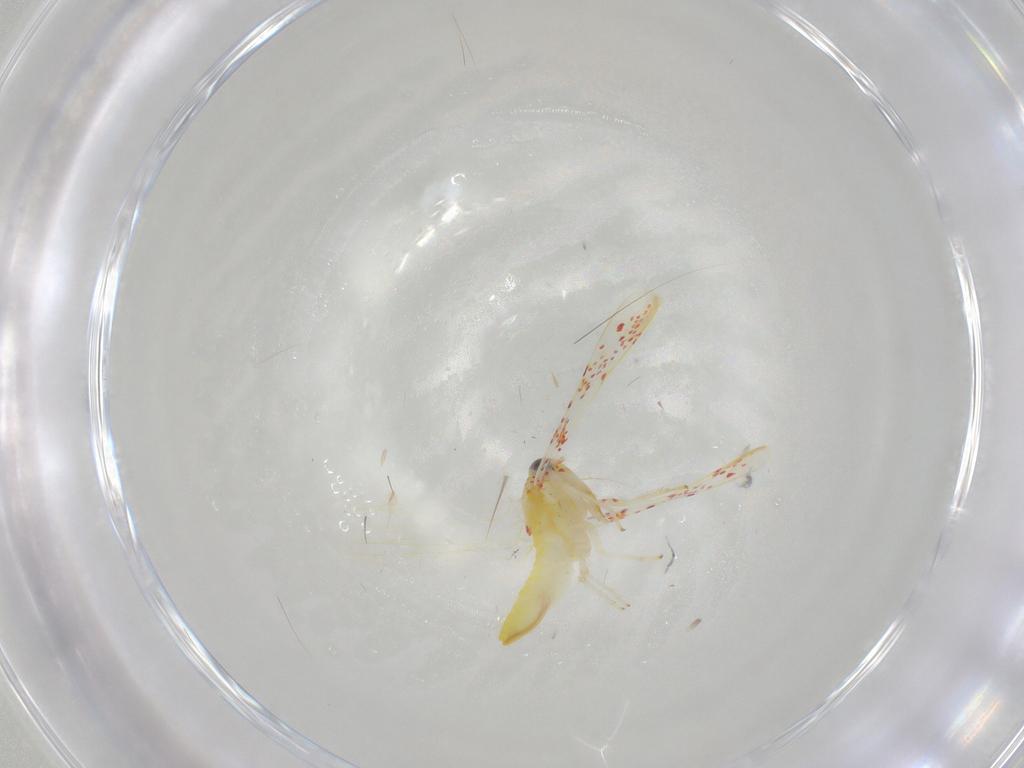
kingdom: Animalia
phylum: Arthropoda
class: Insecta
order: Hemiptera
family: Cicadellidae
